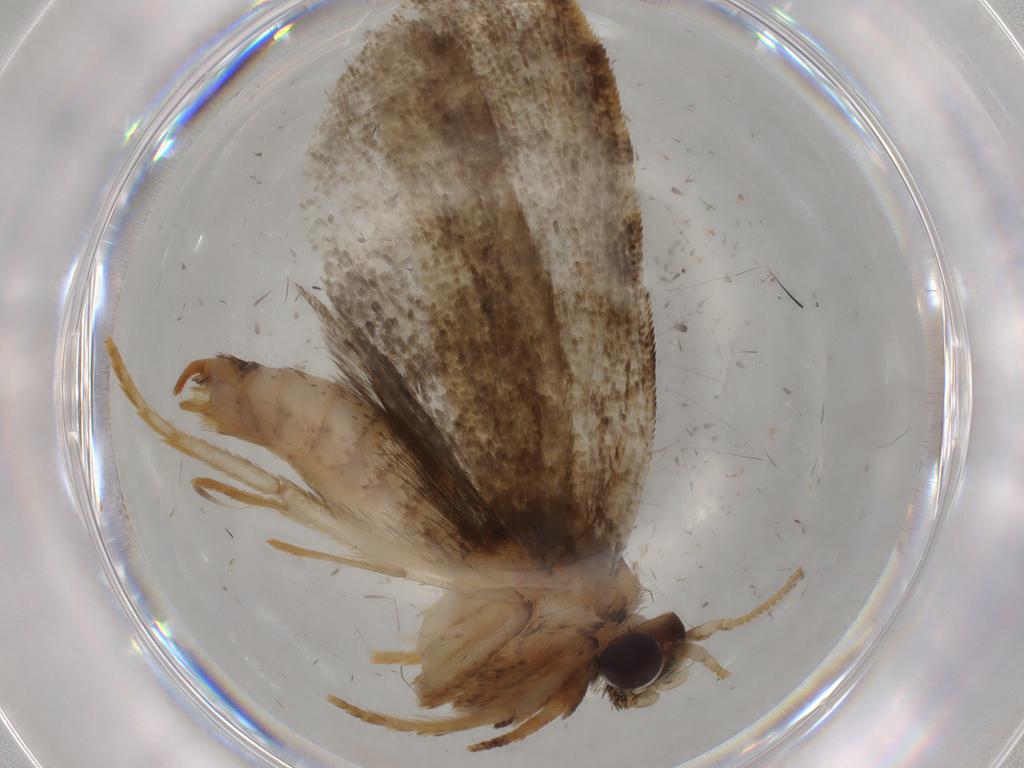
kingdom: Animalia
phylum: Arthropoda
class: Insecta
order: Lepidoptera
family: Tineidae
